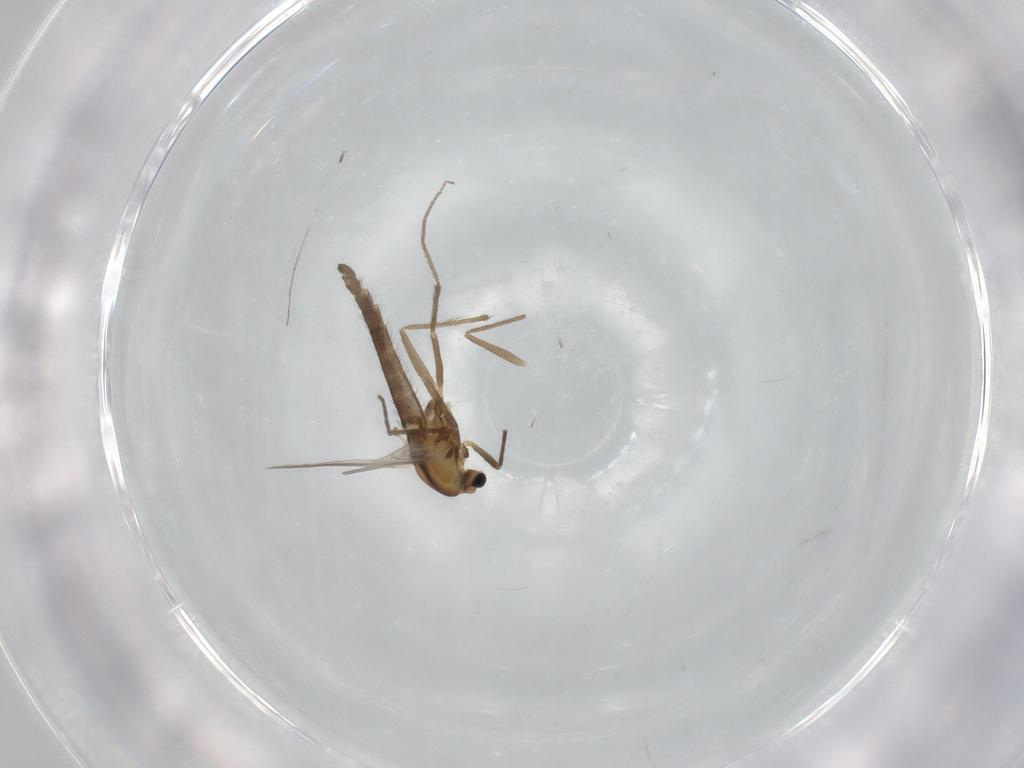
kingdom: Animalia
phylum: Arthropoda
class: Insecta
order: Diptera
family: Chironomidae
